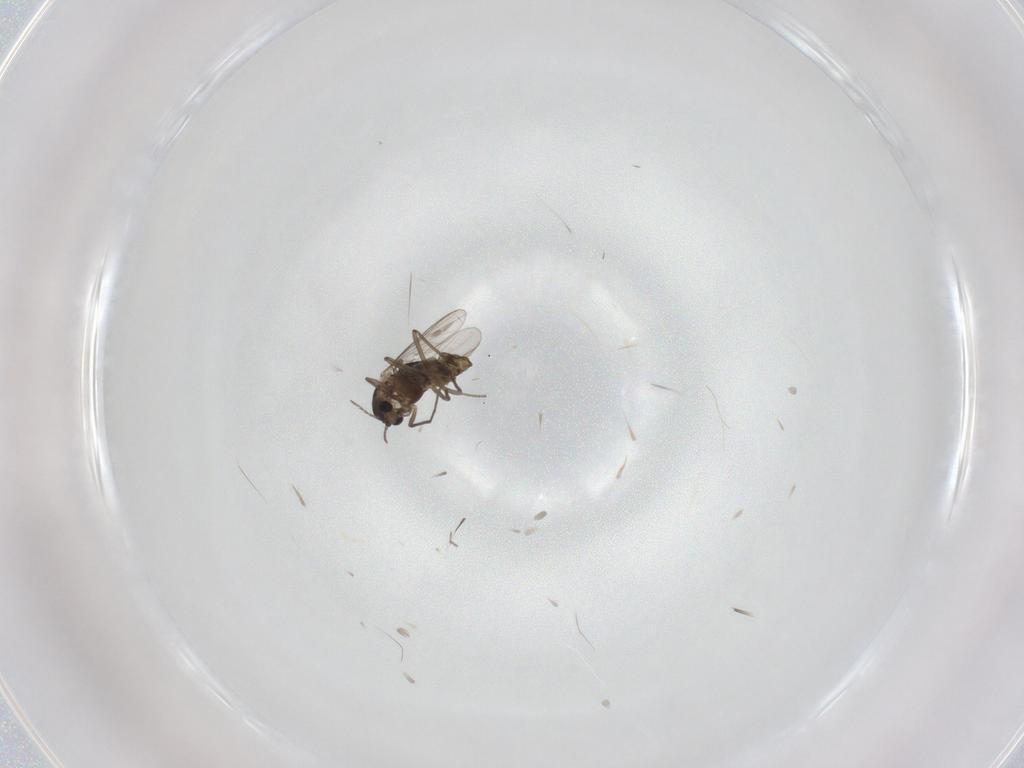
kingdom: Animalia
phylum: Arthropoda
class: Insecta
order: Diptera
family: Chironomidae
